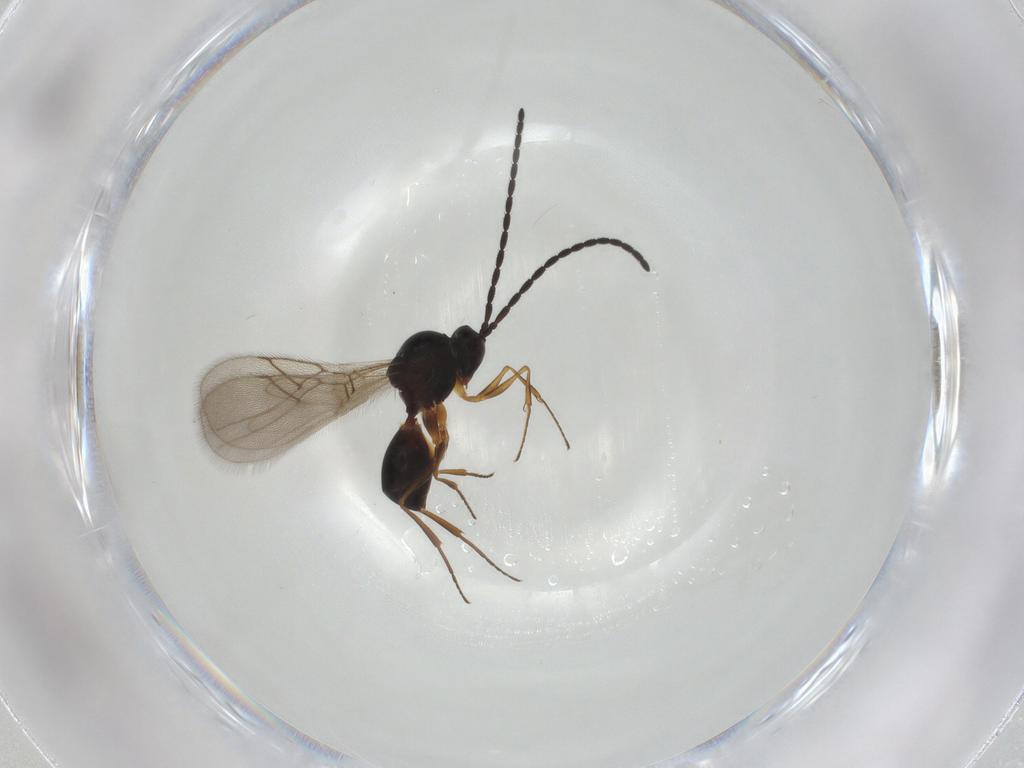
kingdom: Animalia
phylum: Arthropoda
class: Insecta
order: Hymenoptera
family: Figitidae
